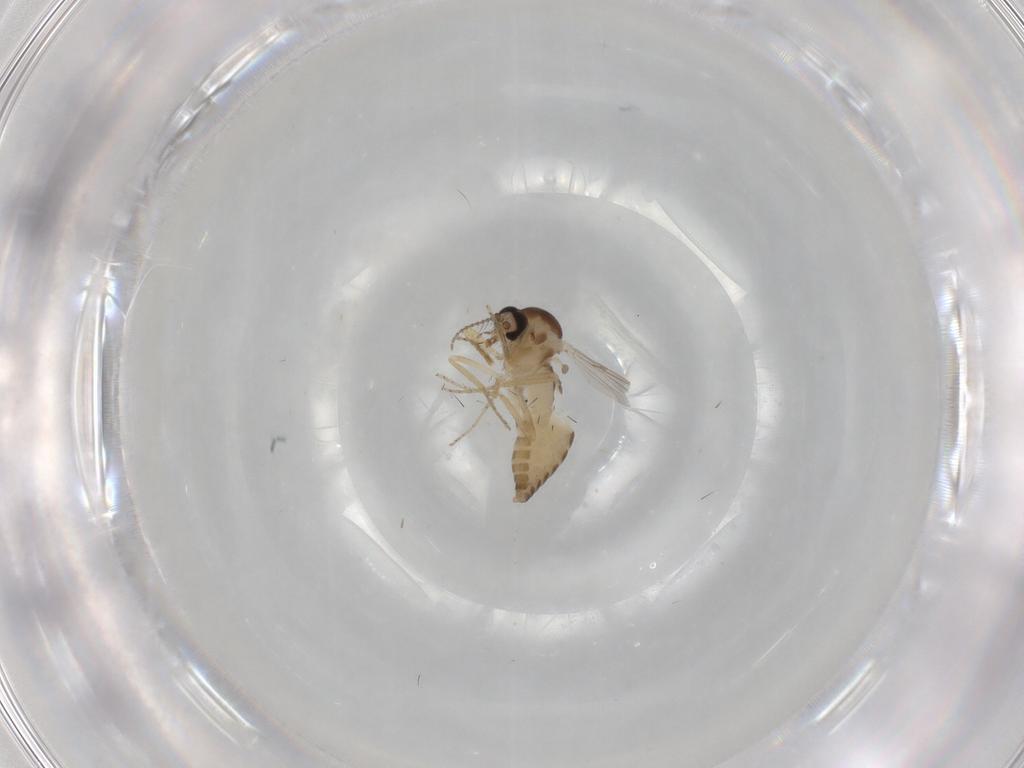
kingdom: Animalia
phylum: Arthropoda
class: Insecta
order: Diptera
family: Ceratopogonidae
